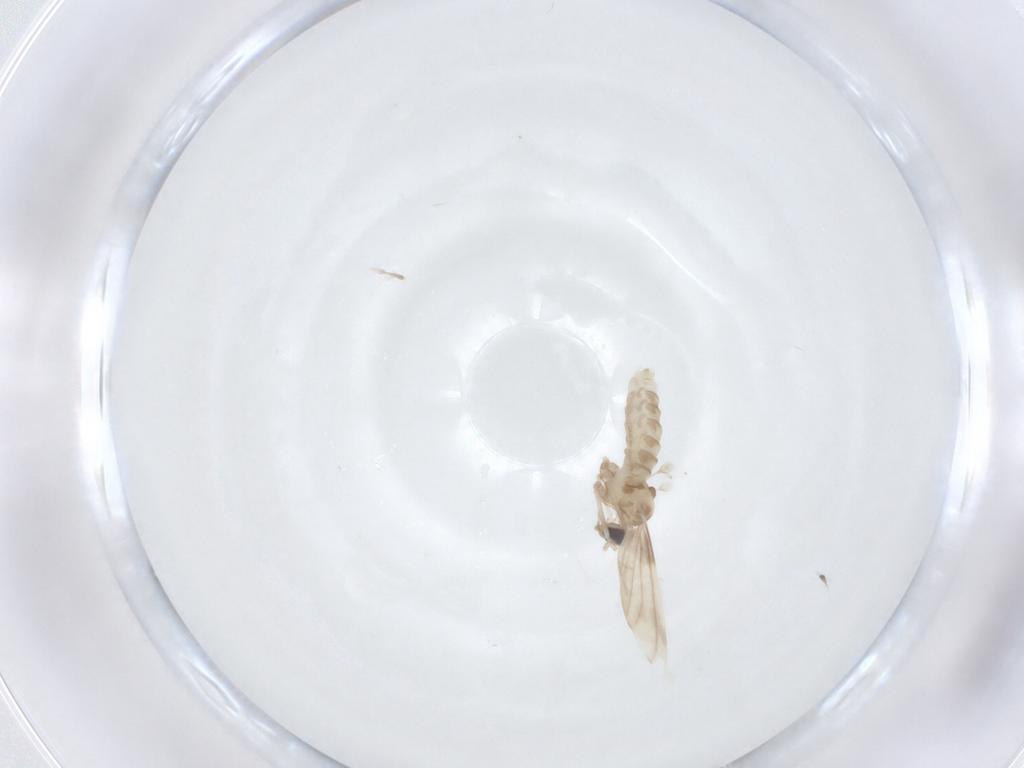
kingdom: Animalia
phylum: Arthropoda
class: Insecta
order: Diptera
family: Cecidomyiidae
